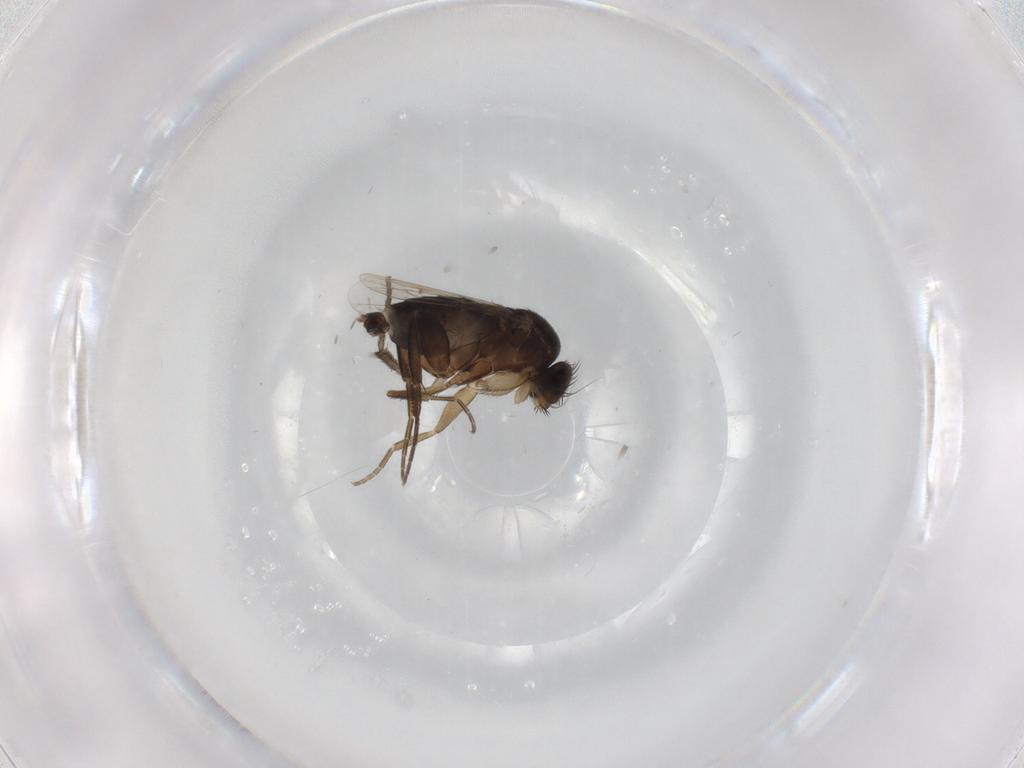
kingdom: Animalia
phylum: Arthropoda
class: Insecta
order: Diptera
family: Phoridae
